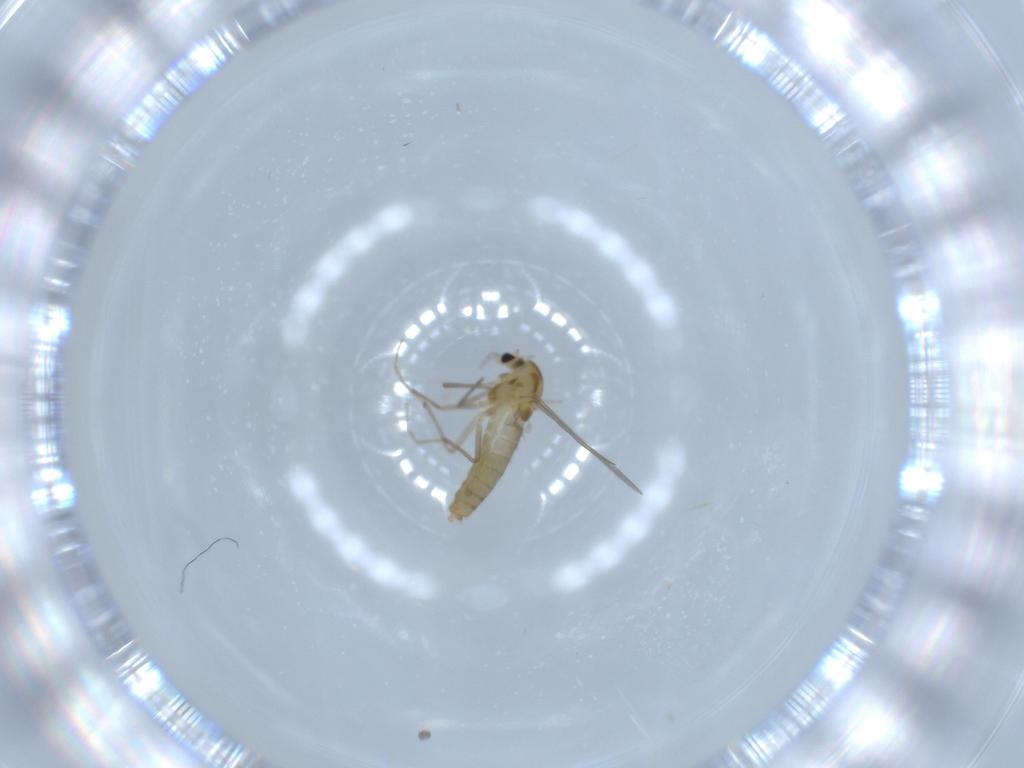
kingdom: Animalia
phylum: Arthropoda
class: Insecta
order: Diptera
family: Chironomidae
